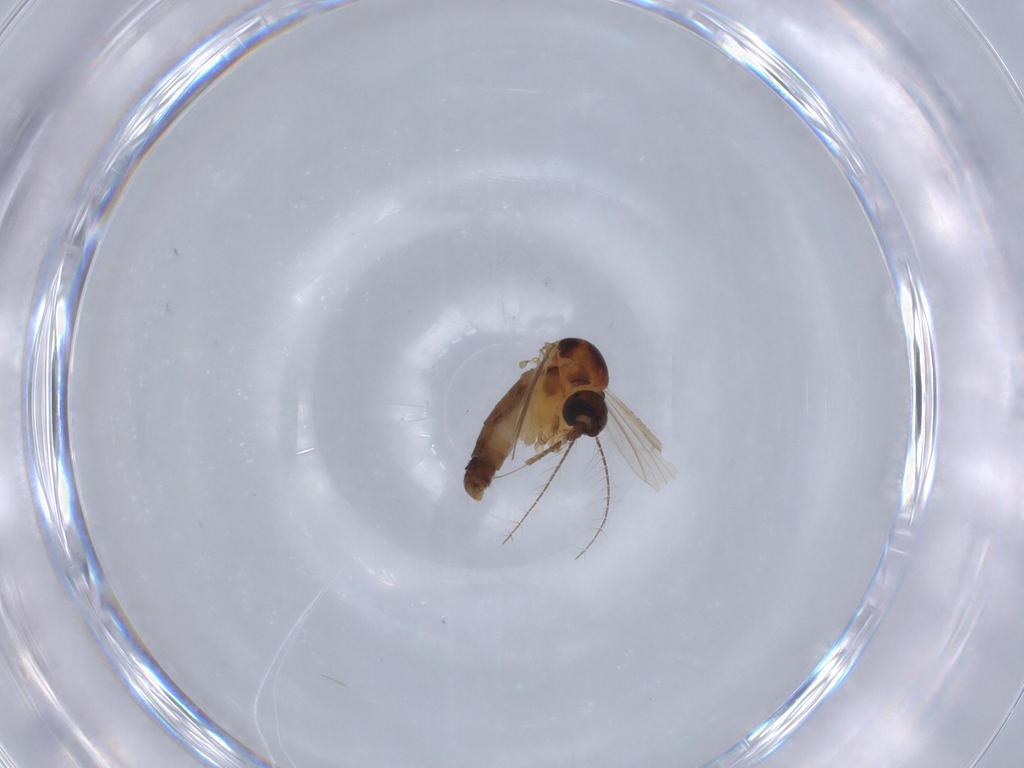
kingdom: Animalia
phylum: Arthropoda
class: Insecta
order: Diptera
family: Ceratopogonidae
